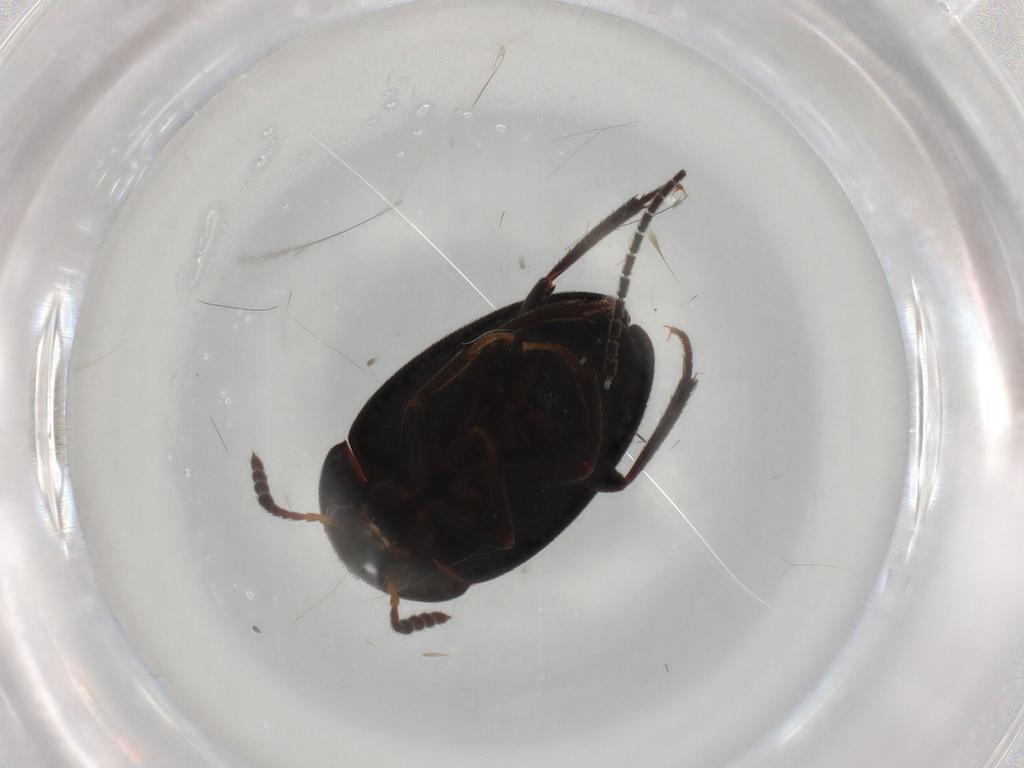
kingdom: Animalia
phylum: Arthropoda
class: Insecta
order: Coleoptera
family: Leiodidae
